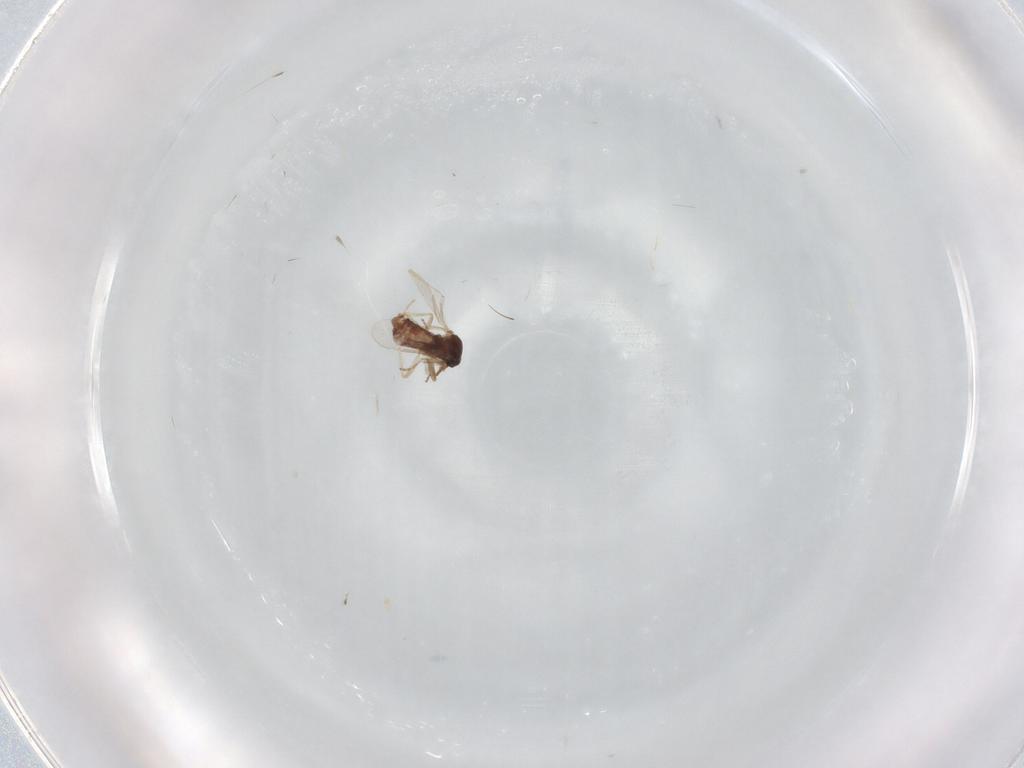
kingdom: Animalia
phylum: Arthropoda
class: Insecta
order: Diptera
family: Ceratopogonidae
